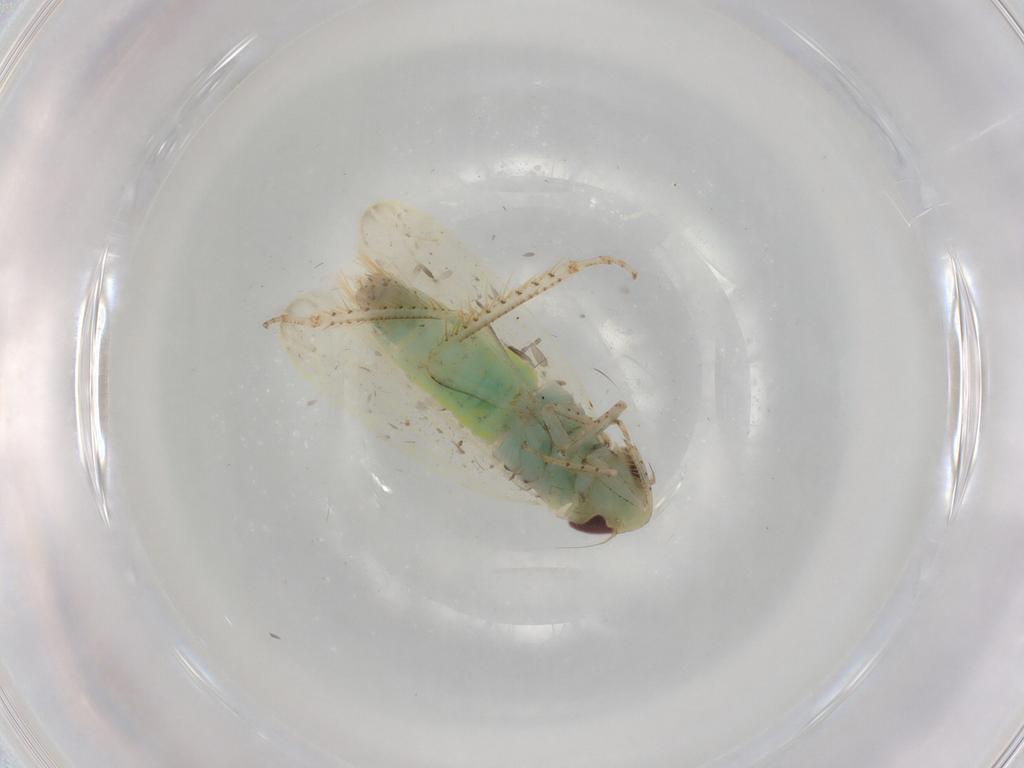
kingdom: Animalia
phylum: Arthropoda
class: Insecta
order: Hemiptera
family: Cicadellidae
